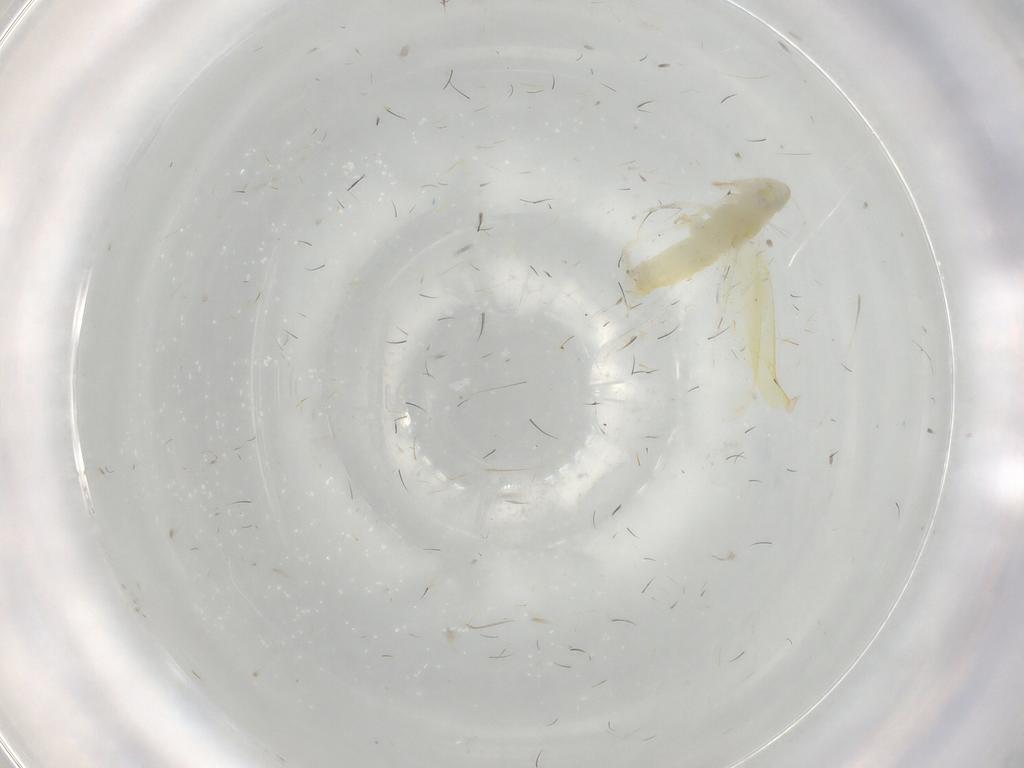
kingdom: Animalia
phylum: Arthropoda
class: Insecta
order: Hemiptera
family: Cicadellidae
